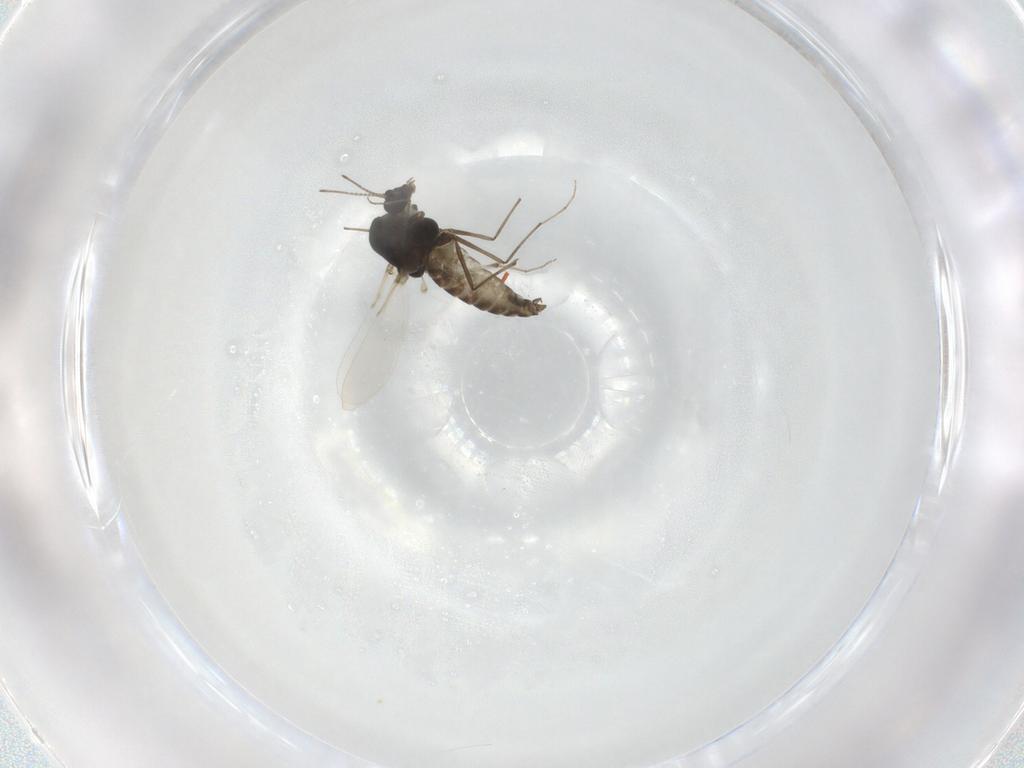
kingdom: Animalia
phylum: Arthropoda
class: Insecta
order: Diptera
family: Chironomidae
